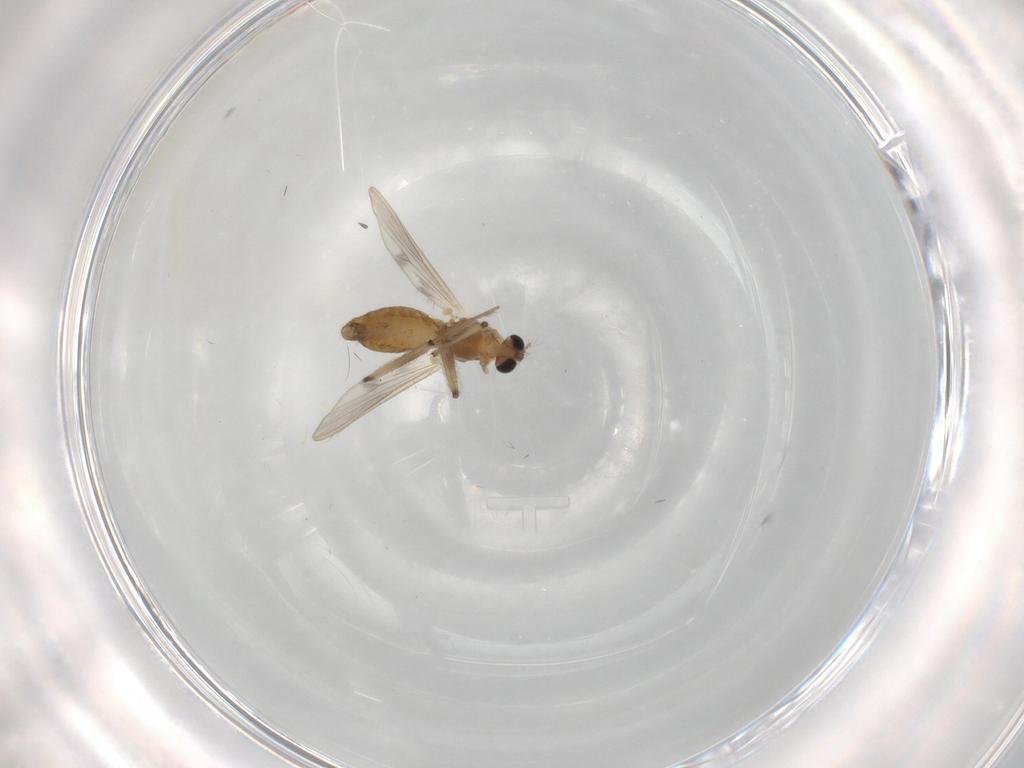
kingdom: Animalia
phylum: Arthropoda
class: Insecta
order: Diptera
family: Chironomidae
